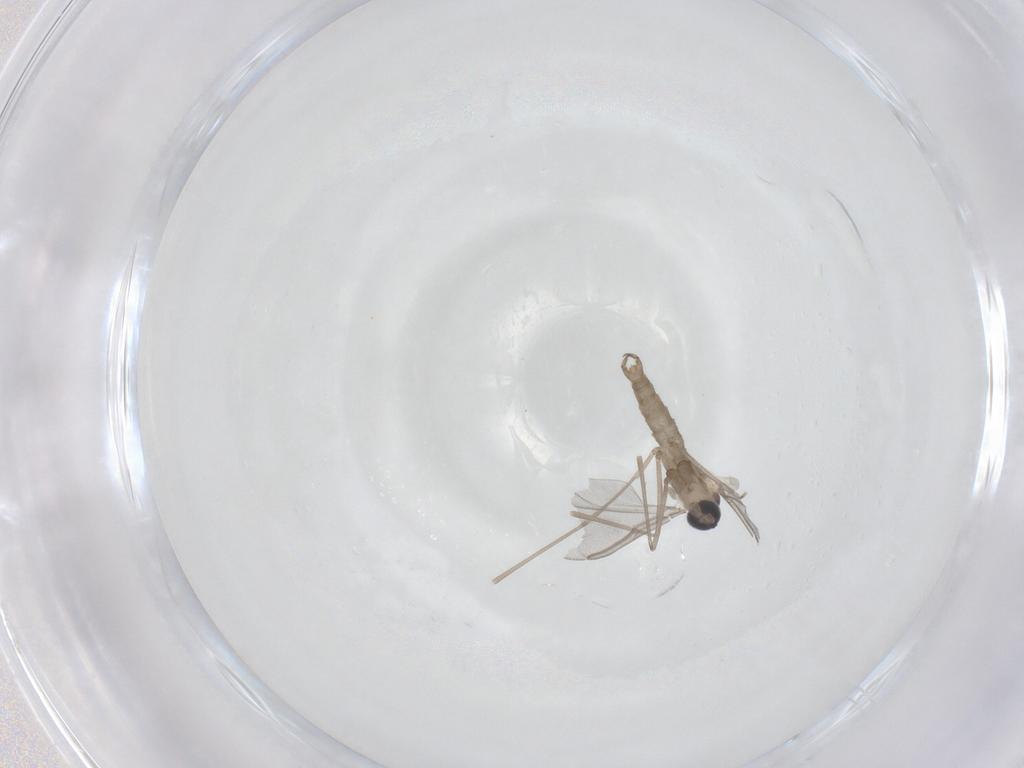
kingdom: Animalia
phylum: Arthropoda
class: Insecta
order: Diptera
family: Cecidomyiidae
